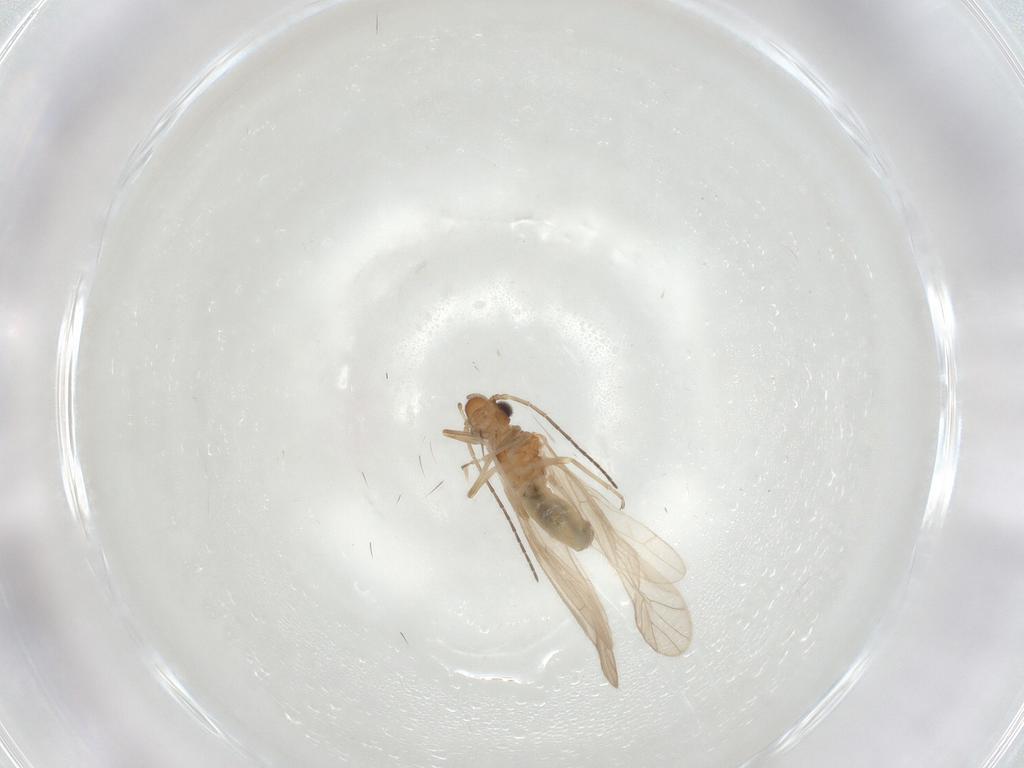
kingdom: Animalia
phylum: Arthropoda
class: Insecta
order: Psocodea
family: Caeciliusidae
